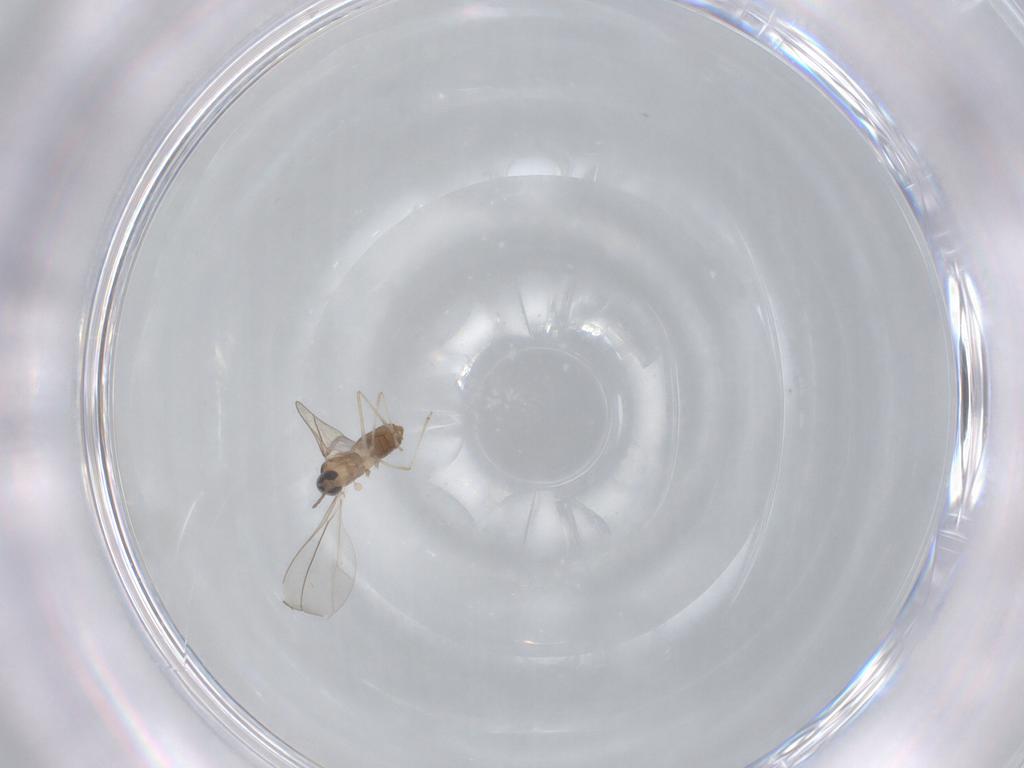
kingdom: Animalia
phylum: Arthropoda
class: Insecta
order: Diptera
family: Cecidomyiidae
